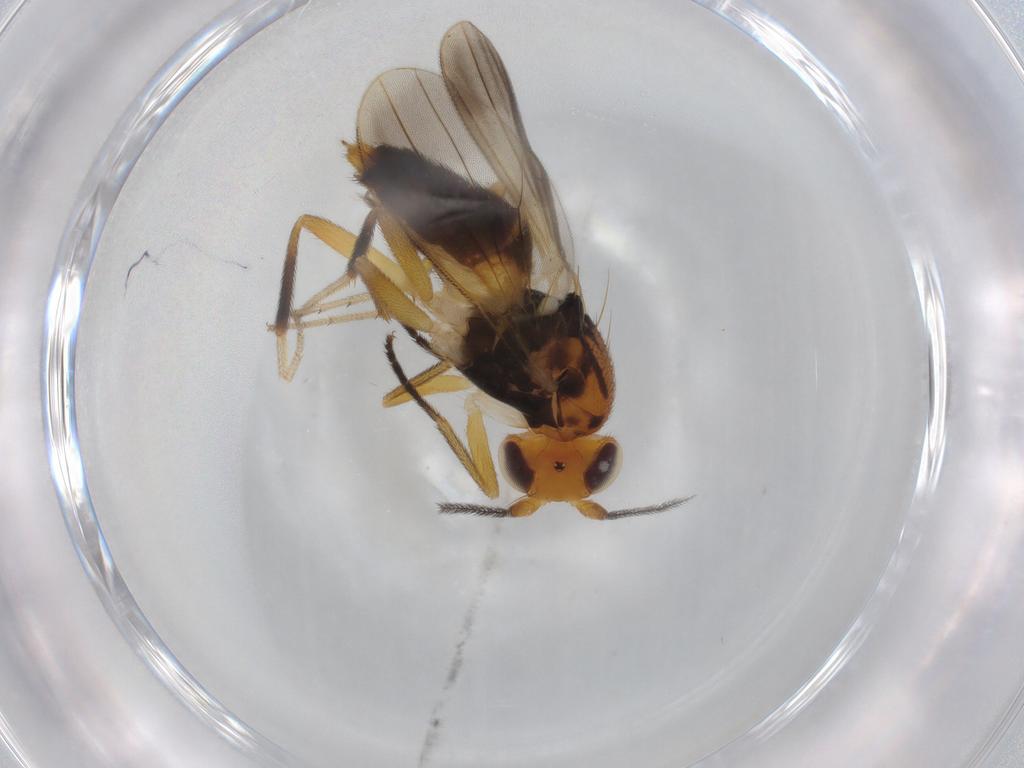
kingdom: Animalia
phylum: Arthropoda
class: Insecta
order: Diptera
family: Clusiidae
